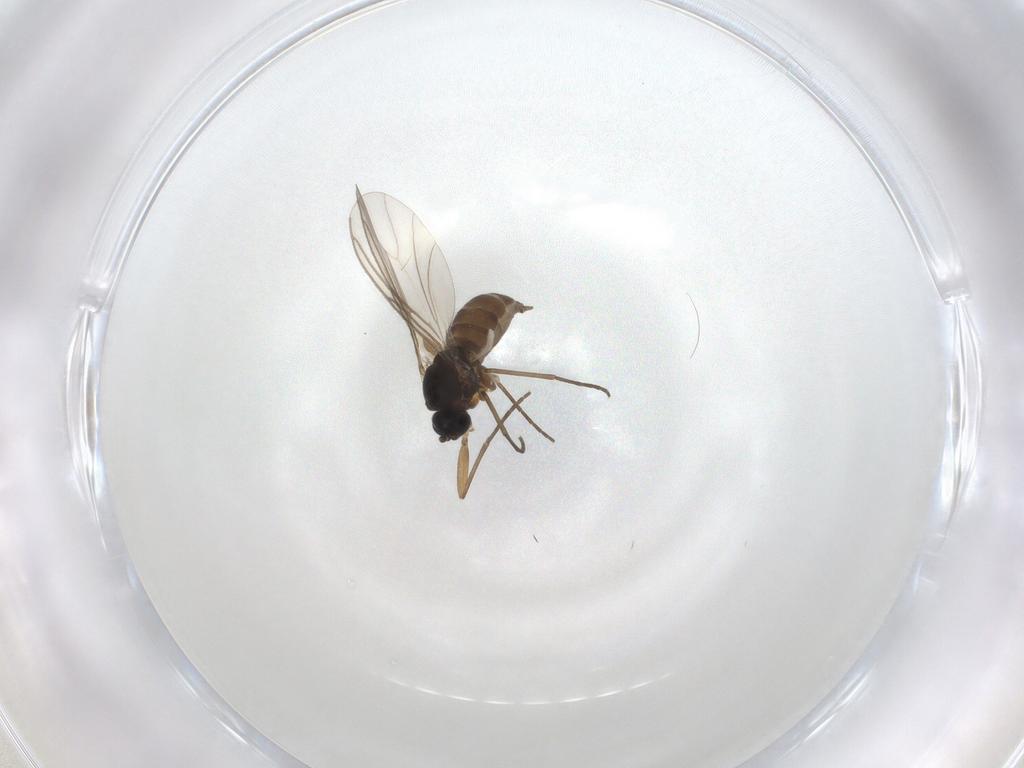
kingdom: Animalia
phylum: Arthropoda
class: Insecta
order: Diptera
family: Sciaridae
